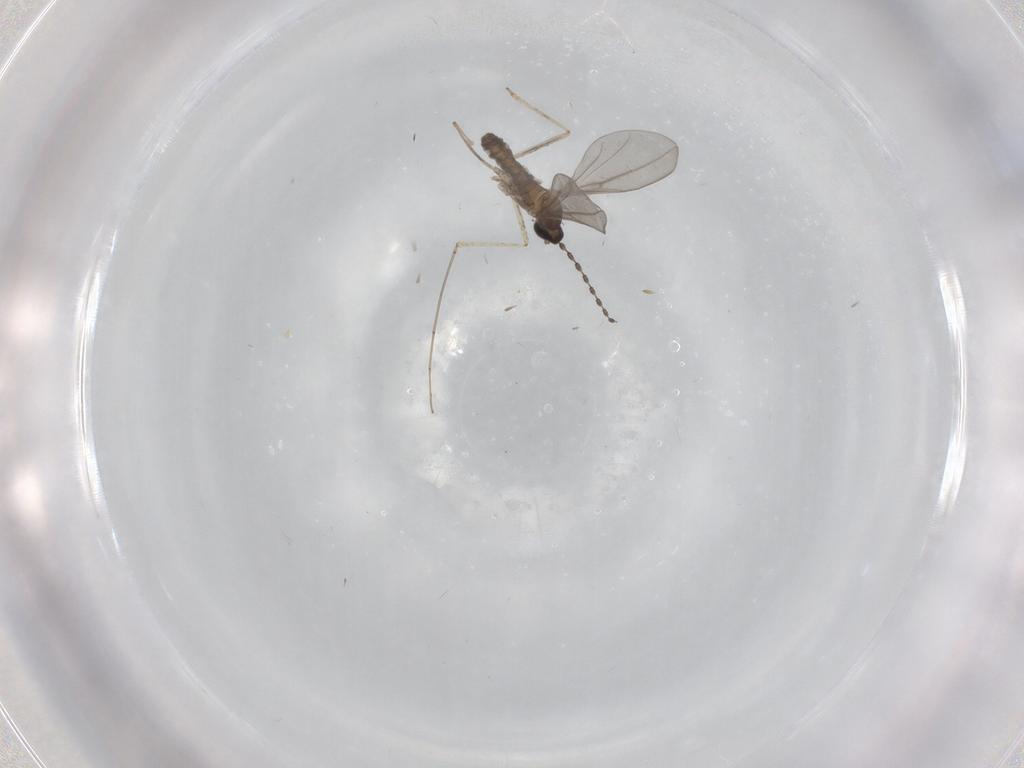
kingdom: Animalia
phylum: Arthropoda
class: Insecta
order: Diptera
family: Cecidomyiidae
